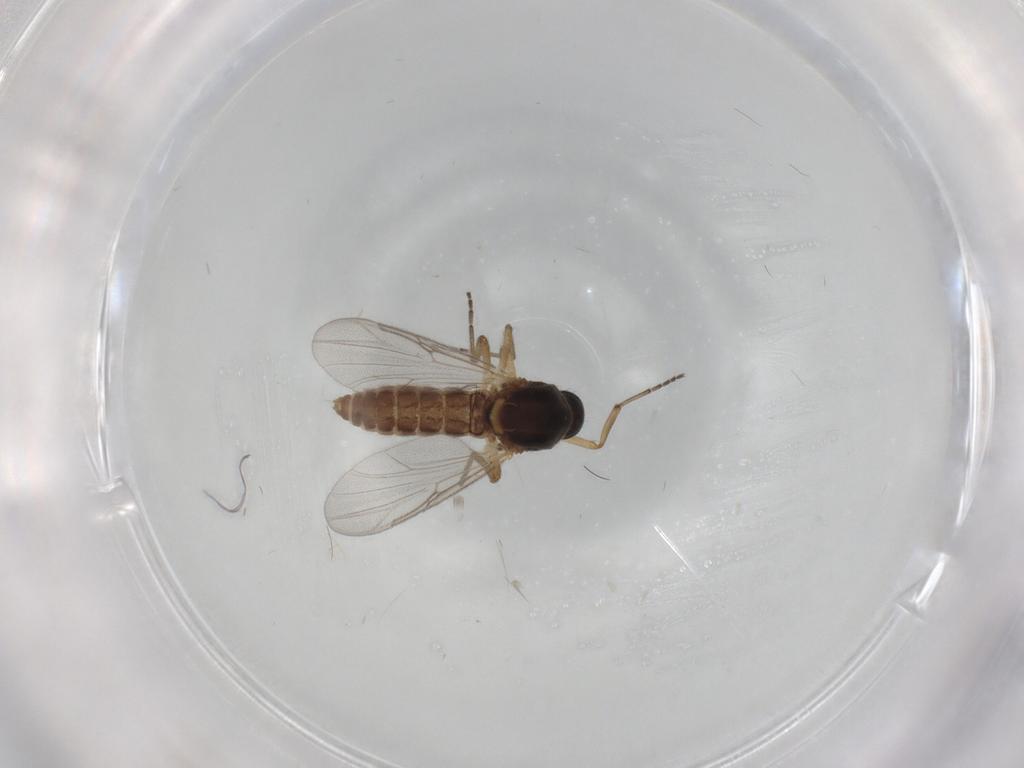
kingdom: Animalia
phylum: Arthropoda
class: Insecta
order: Diptera
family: Ceratopogonidae
